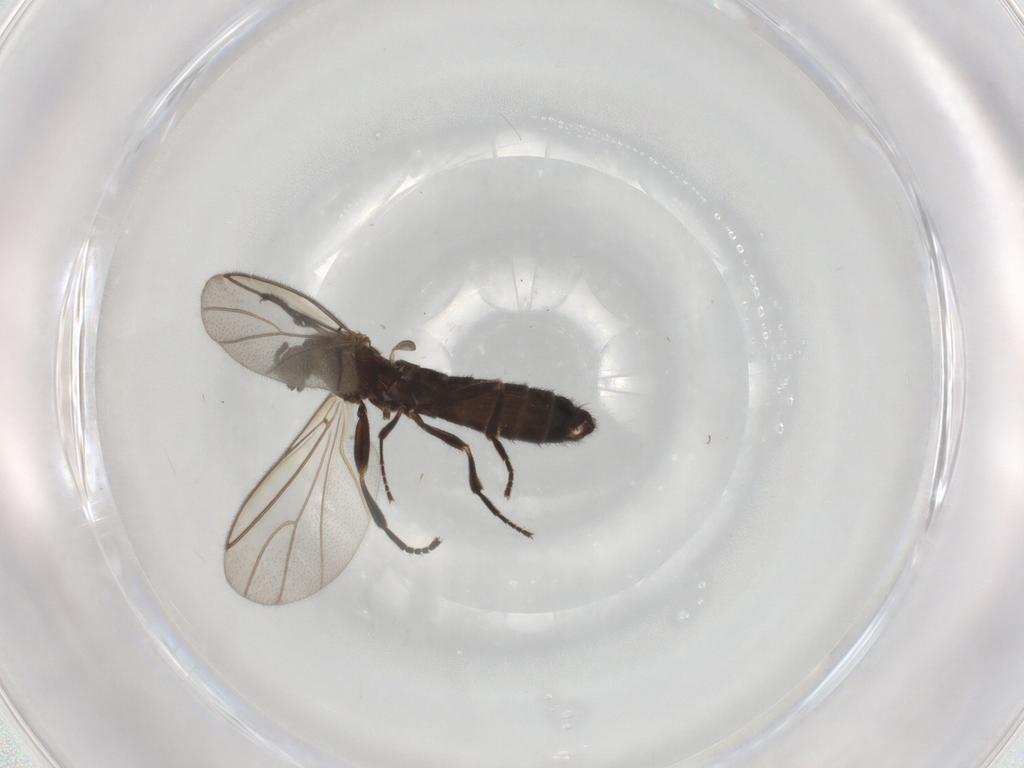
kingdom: Animalia
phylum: Arthropoda
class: Insecta
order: Diptera
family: Scatopsidae
